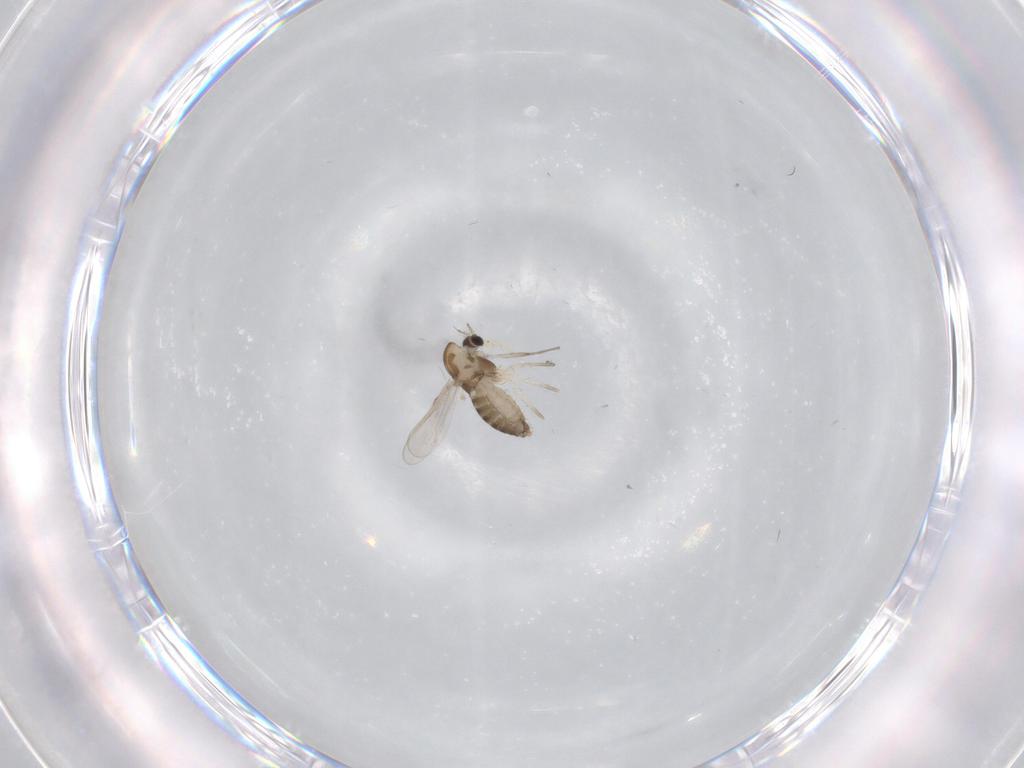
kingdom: Animalia
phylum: Arthropoda
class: Insecta
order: Diptera
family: Chironomidae
